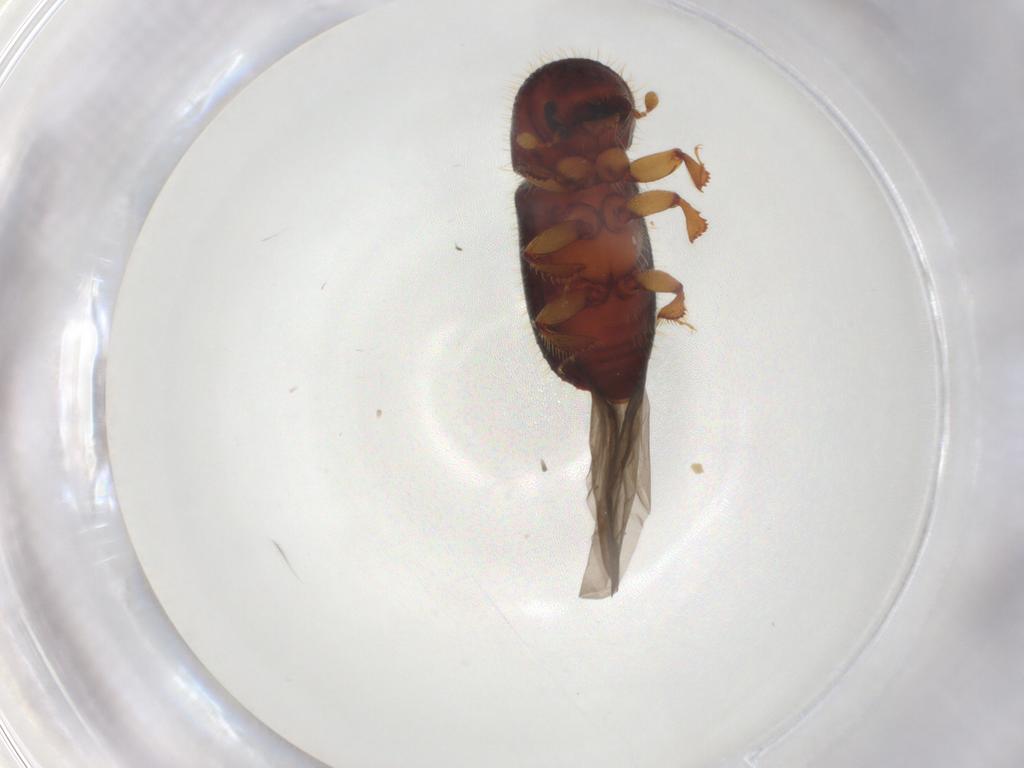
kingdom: Animalia
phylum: Arthropoda
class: Insecta
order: Coleoptera
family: Curculionidae
